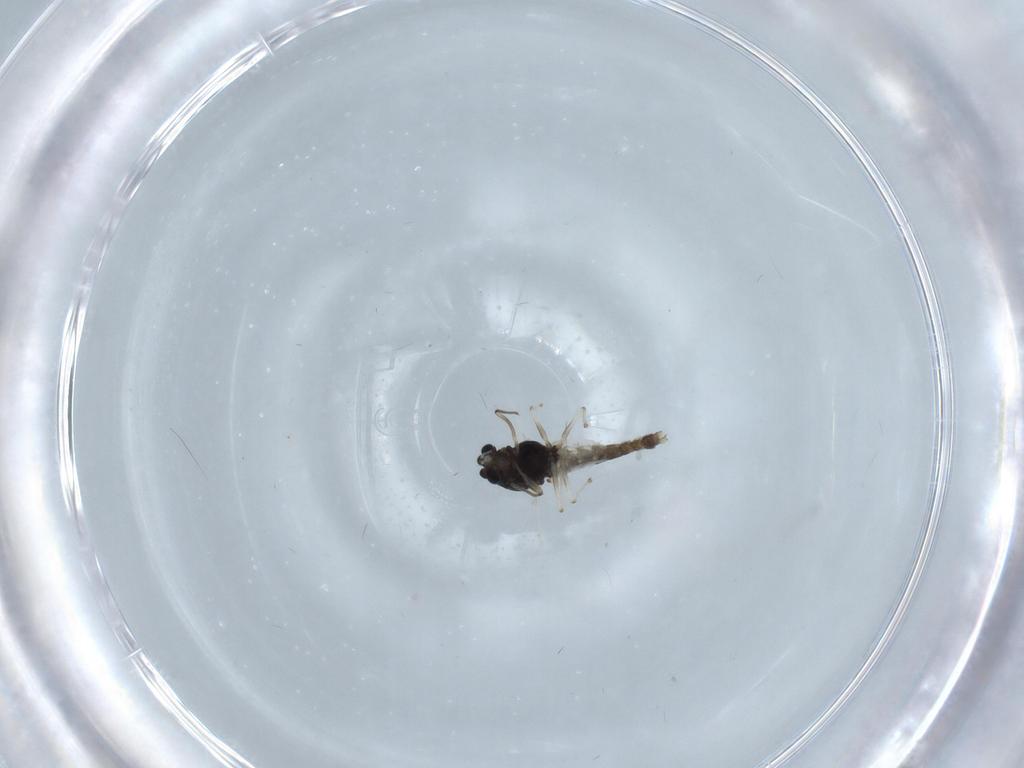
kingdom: Animalia
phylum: Arthropoda
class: Insecta
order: Diptera
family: Chironomidae
